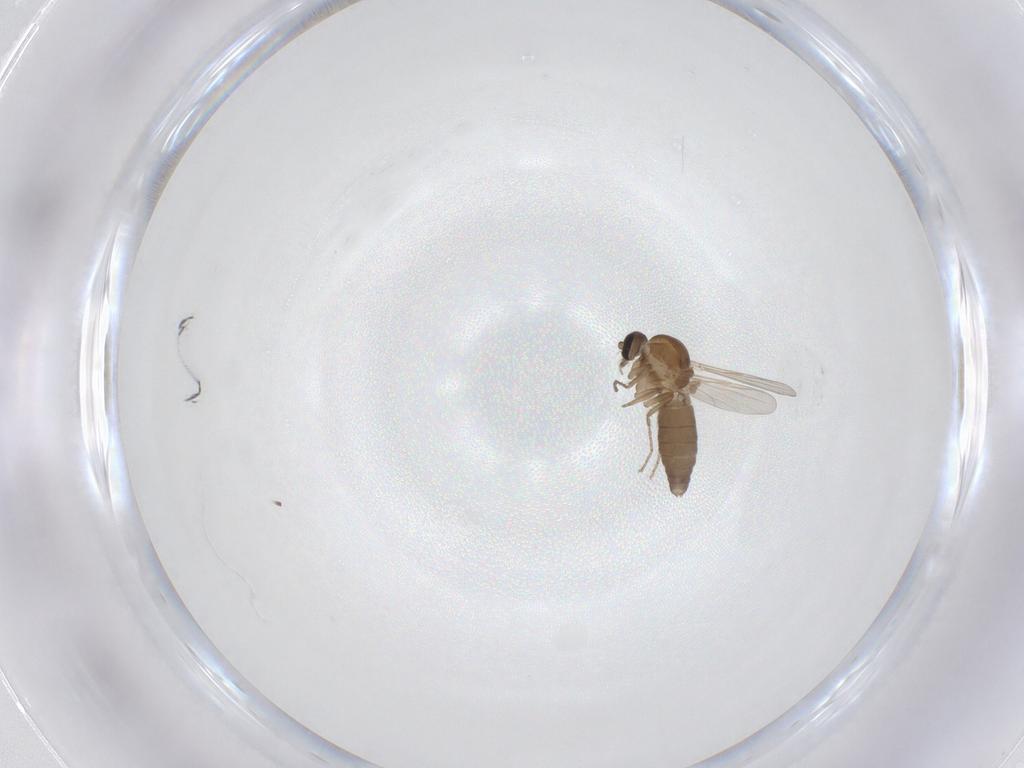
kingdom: Animalia
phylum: Arthropoda
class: Insecta
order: Diptera
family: Ceratopogonidae
